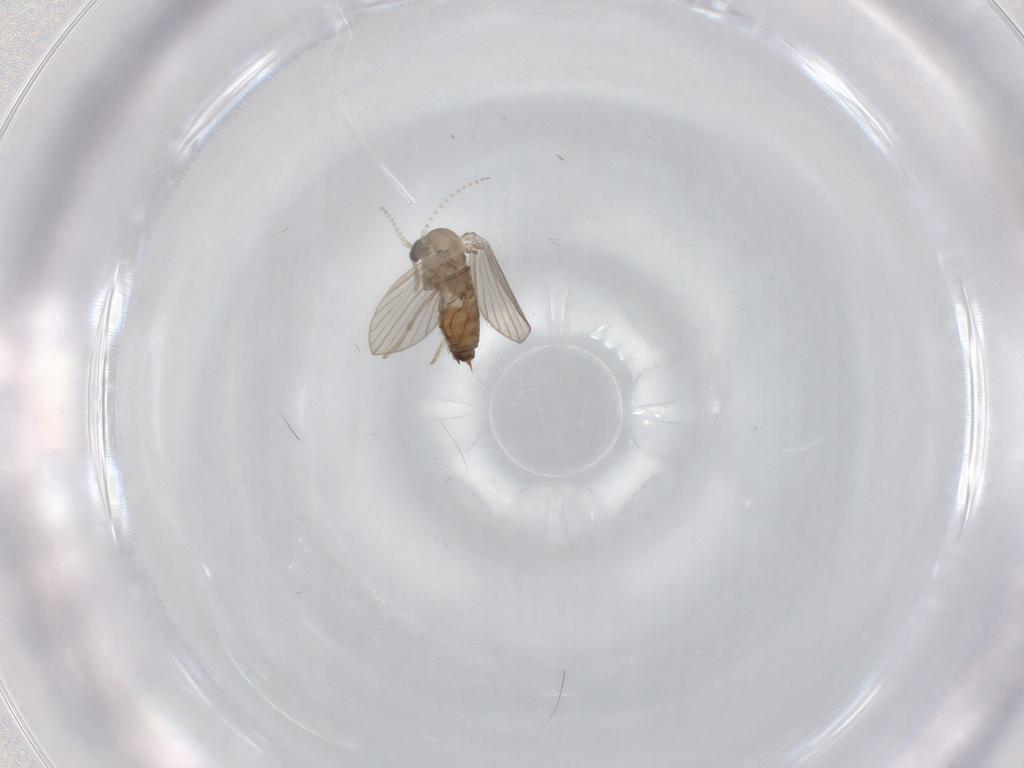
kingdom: Animalia
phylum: Arthropoda
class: Insecta
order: Diptera
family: Psychodidae
